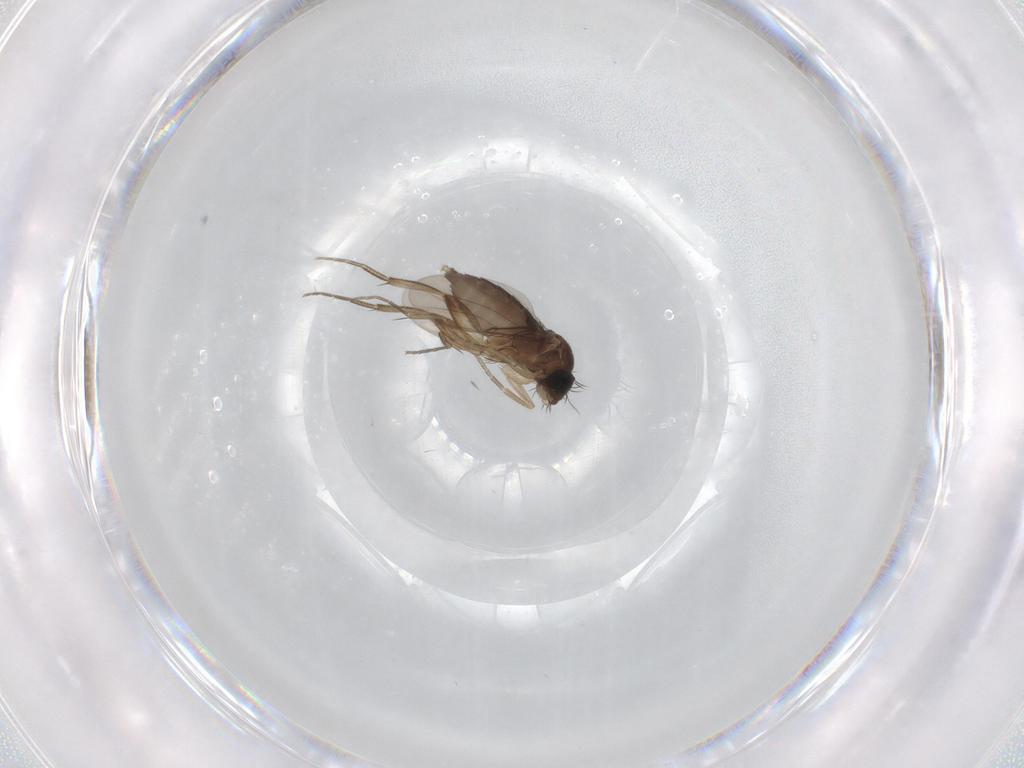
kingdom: Animalia
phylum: Arthropoda
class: Insecta
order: Diptera
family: Phoridae
